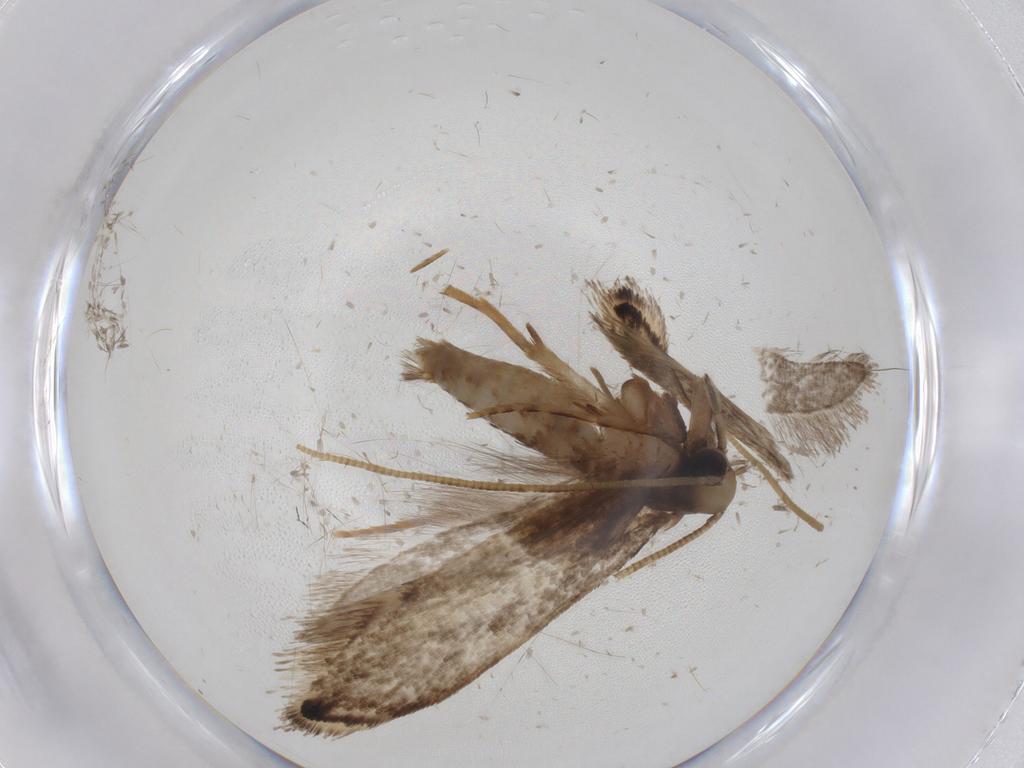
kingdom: Animalia
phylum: Arthropoda
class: Insecta
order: Lepidoptera
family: Tineidae
